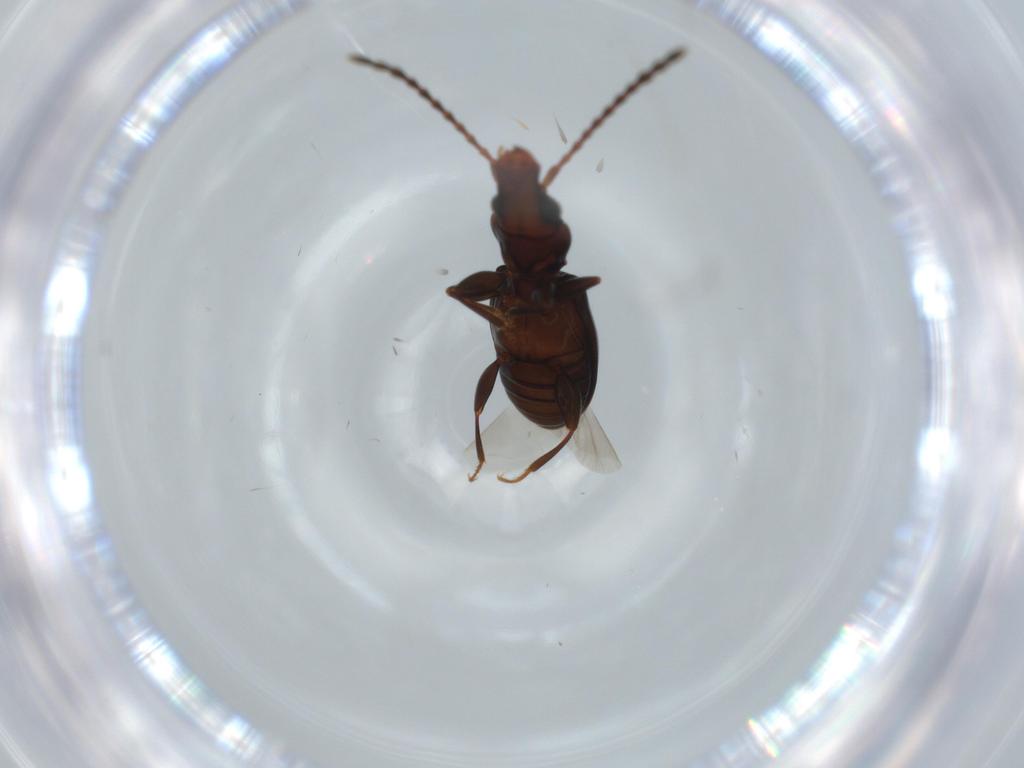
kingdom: Animalia
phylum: Arthropoda
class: Insecta
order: Coleoptera
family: Laemophloeidae
